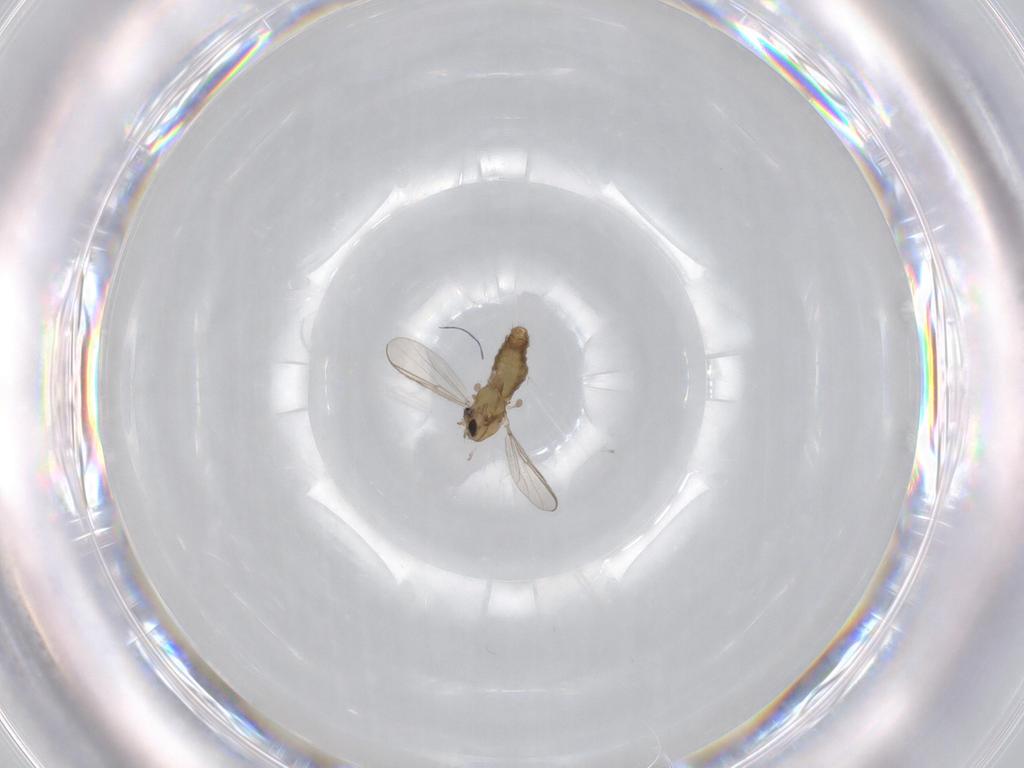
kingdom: Animalia
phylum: Arthropoda
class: Insecta
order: Diptera
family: Chironomidae
